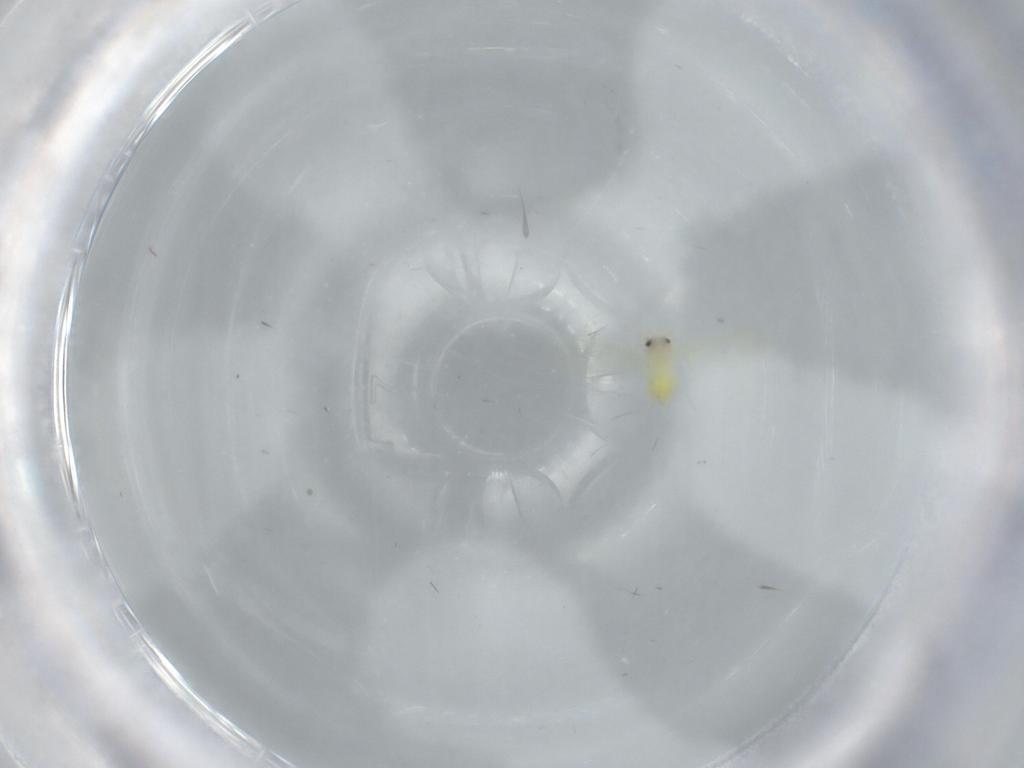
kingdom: Animalia
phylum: Arthropoda
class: Insecta
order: Hemiptera
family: Aleyrodidae
